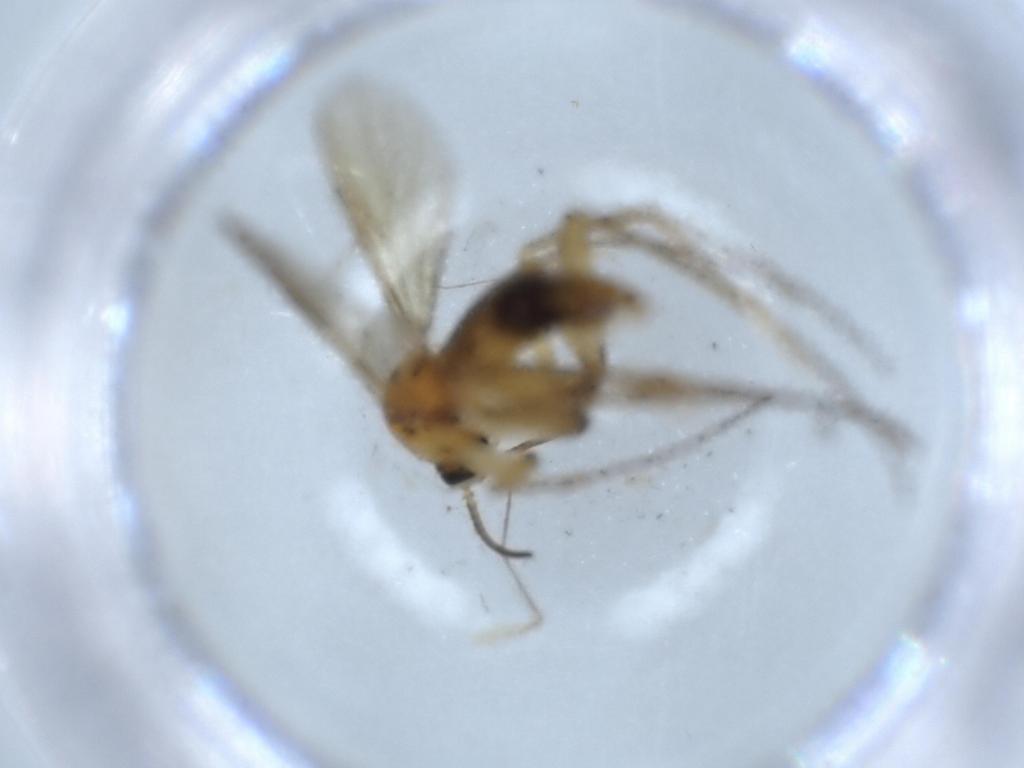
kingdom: Animalia
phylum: Arthropoda
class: Insecta
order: Diptera
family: Mycetophilidae
